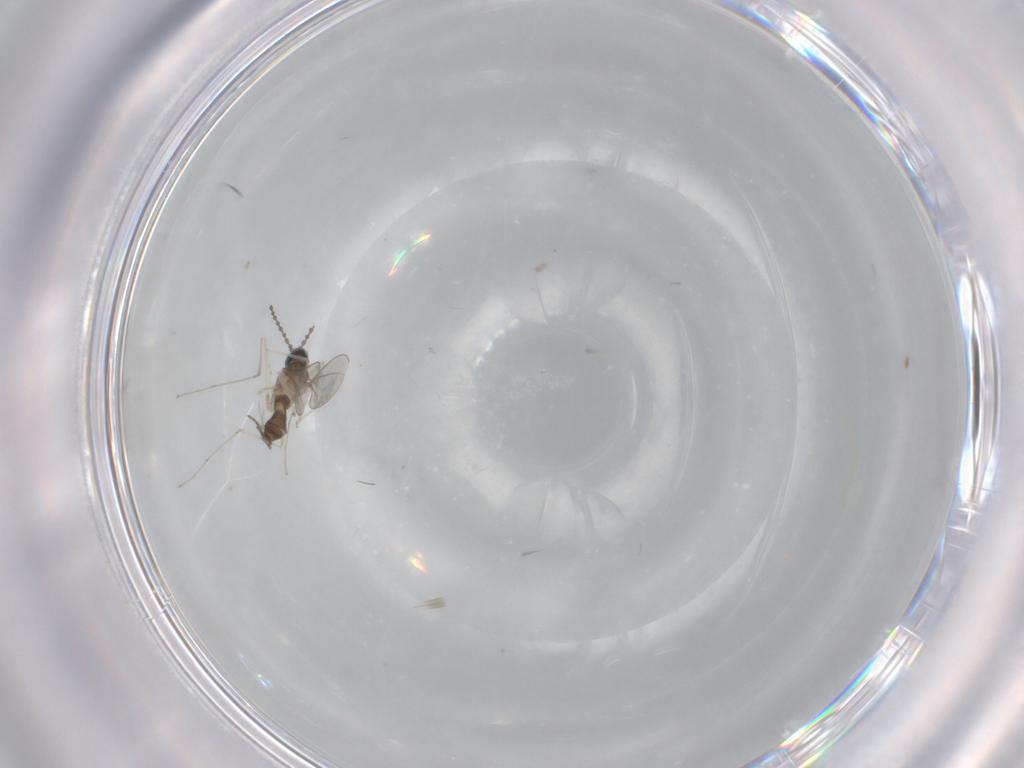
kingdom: Animalia
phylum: Arthropoda
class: Insecta
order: Diptera
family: Cecidomyiidae
